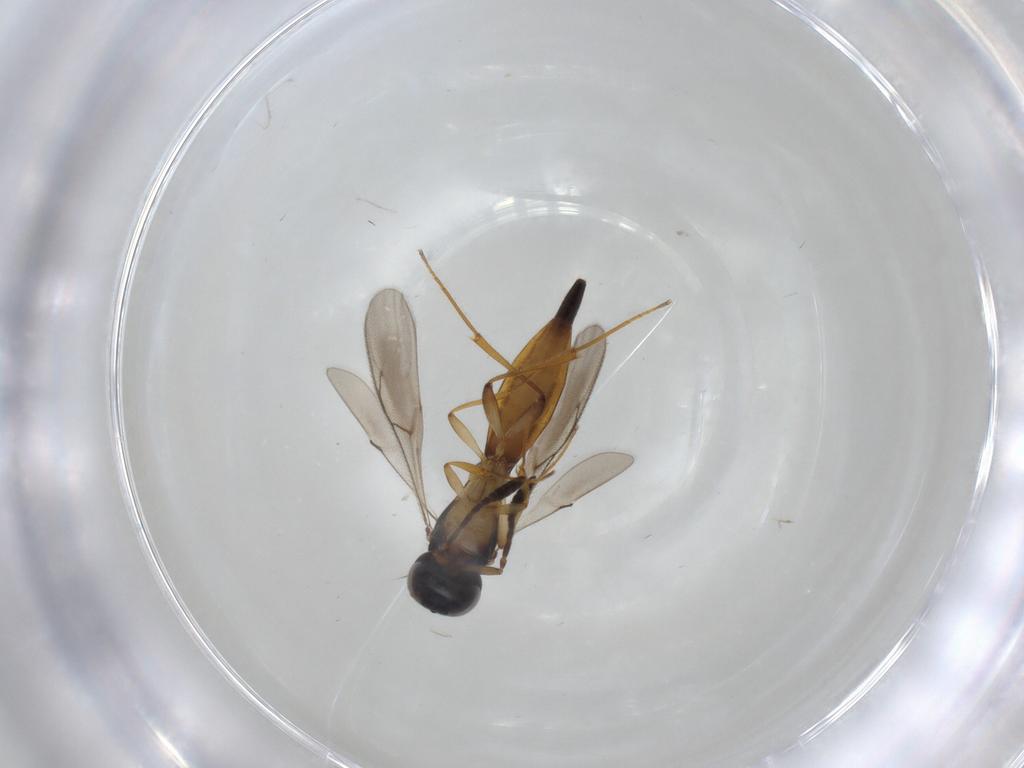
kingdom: Animalia
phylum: Arthropoda
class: Insecta
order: Hymenoptera
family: Scelionidae
